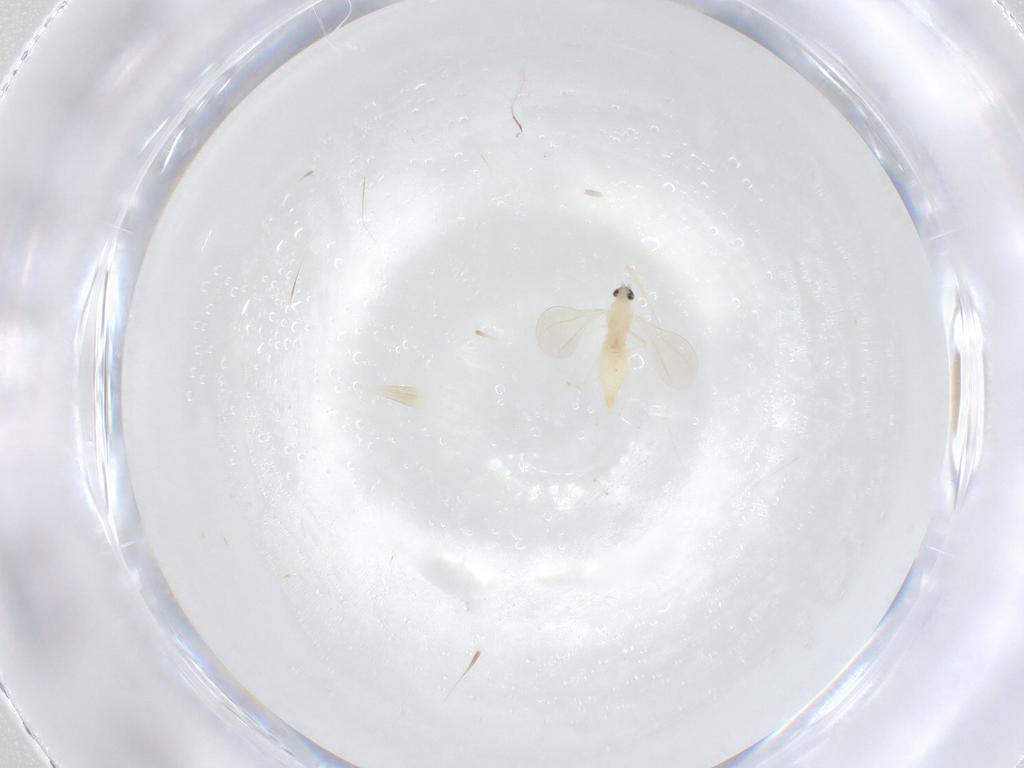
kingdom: Animalia
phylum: Arthropoda
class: Insecta
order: Diptera
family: Cecidomyiidae
